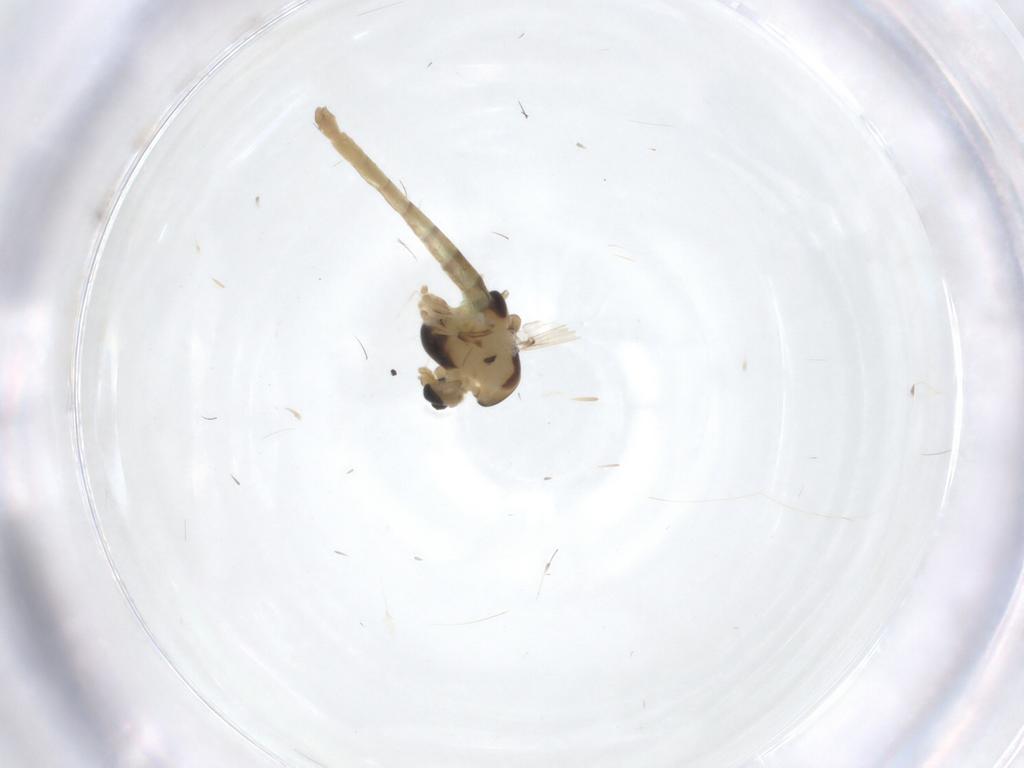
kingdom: Animalia
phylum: Arthropoda
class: Insecta
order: Diptera
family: Chironomidae
